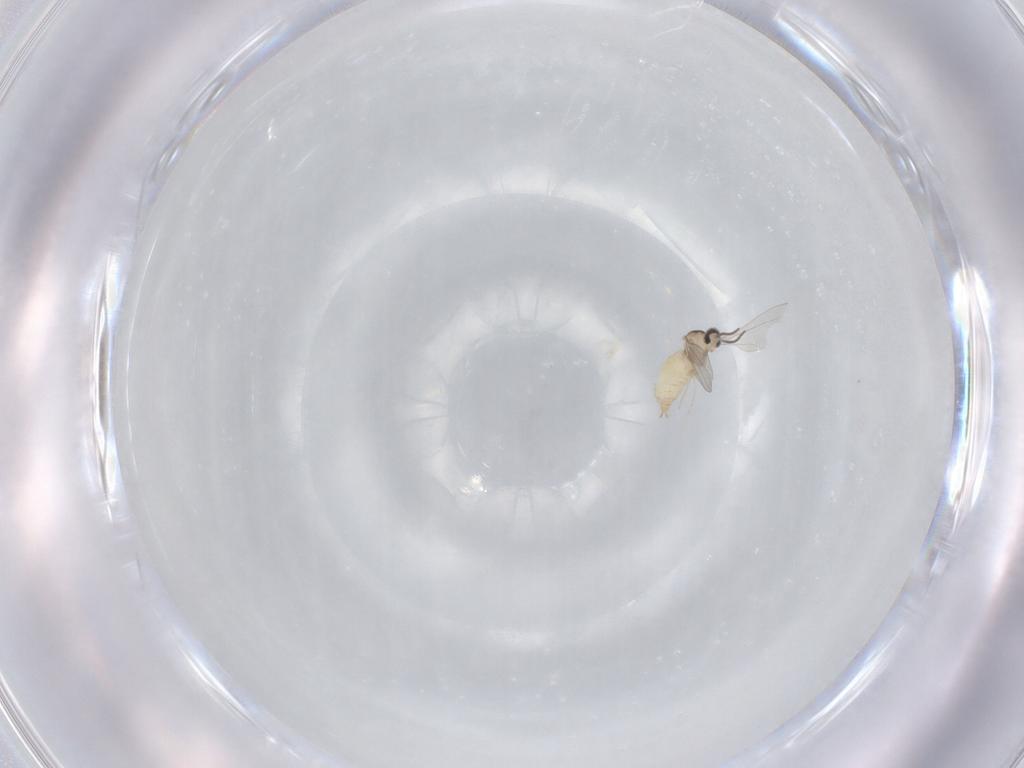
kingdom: Animalia
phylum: Arthropoda
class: Insecta
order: Diptera
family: Cecidomyiidae
